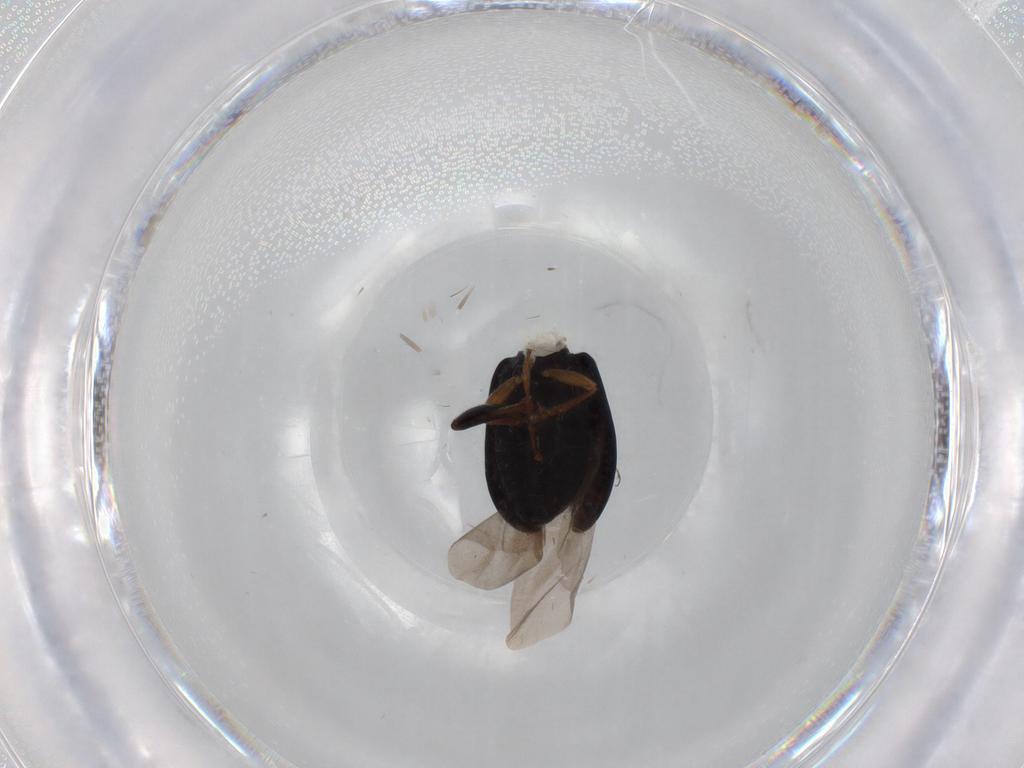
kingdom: Animalia
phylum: Arthropoda
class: Insecta
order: Coleoptera
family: Chrysomelidae
